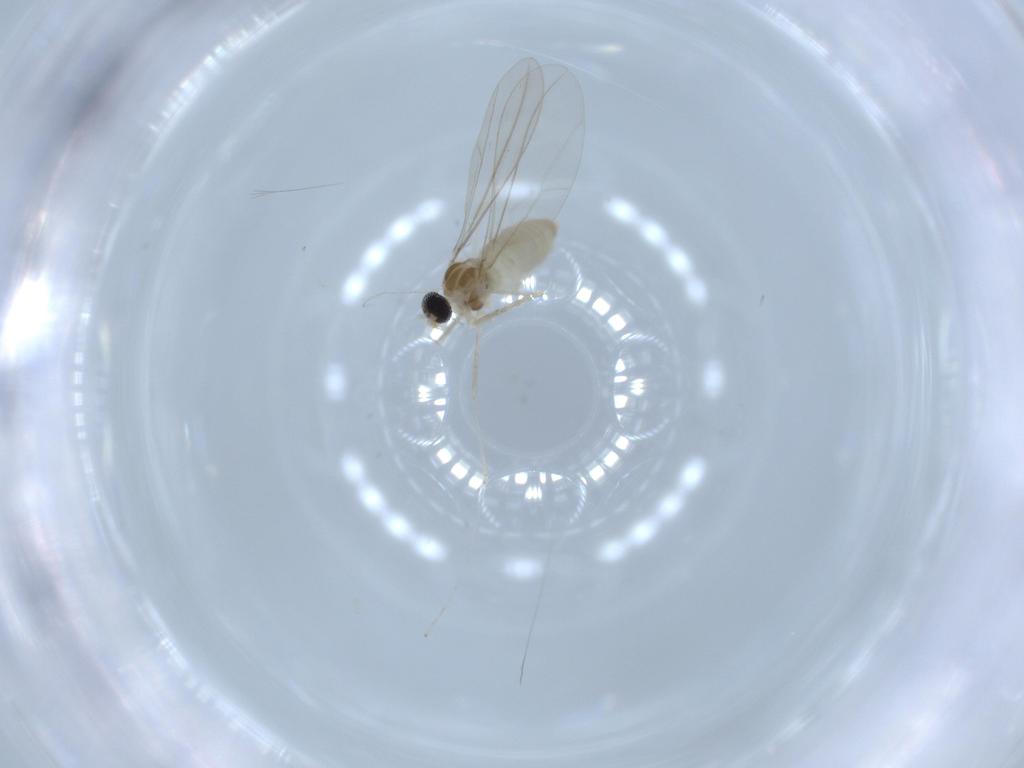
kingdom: Animalia
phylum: Arthropoda
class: Insecta
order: Diptera
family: Cecidomyiidae
